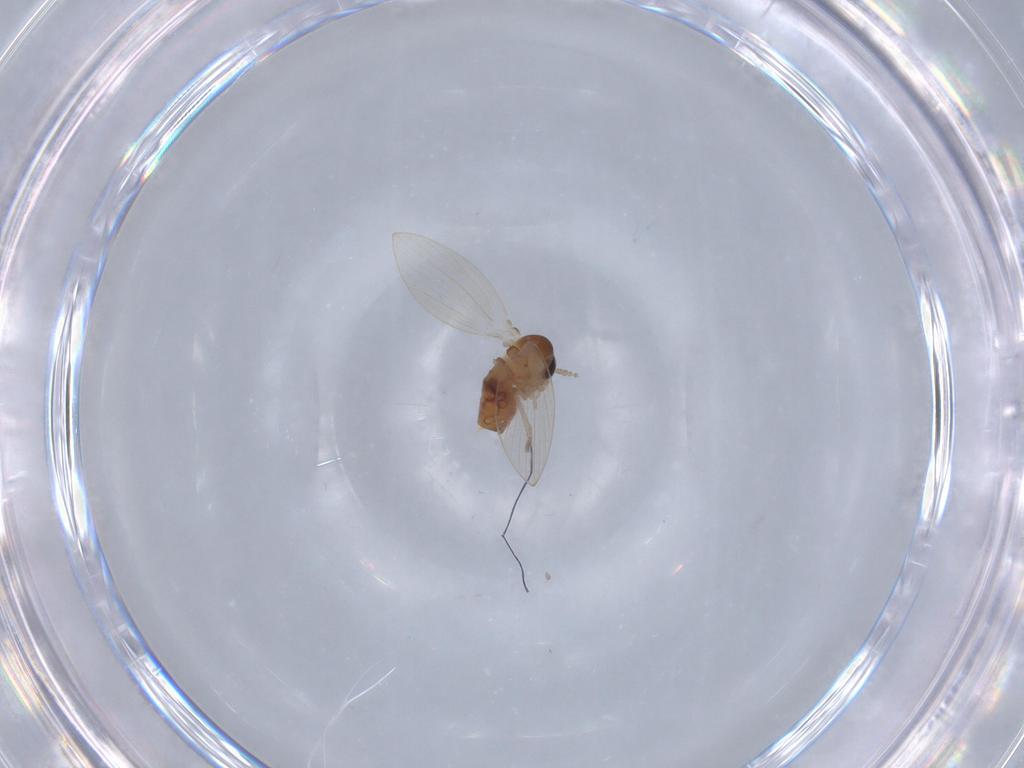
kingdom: Animalia
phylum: Arthropoda
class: Insecta
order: Diptera
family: Psychodidae
